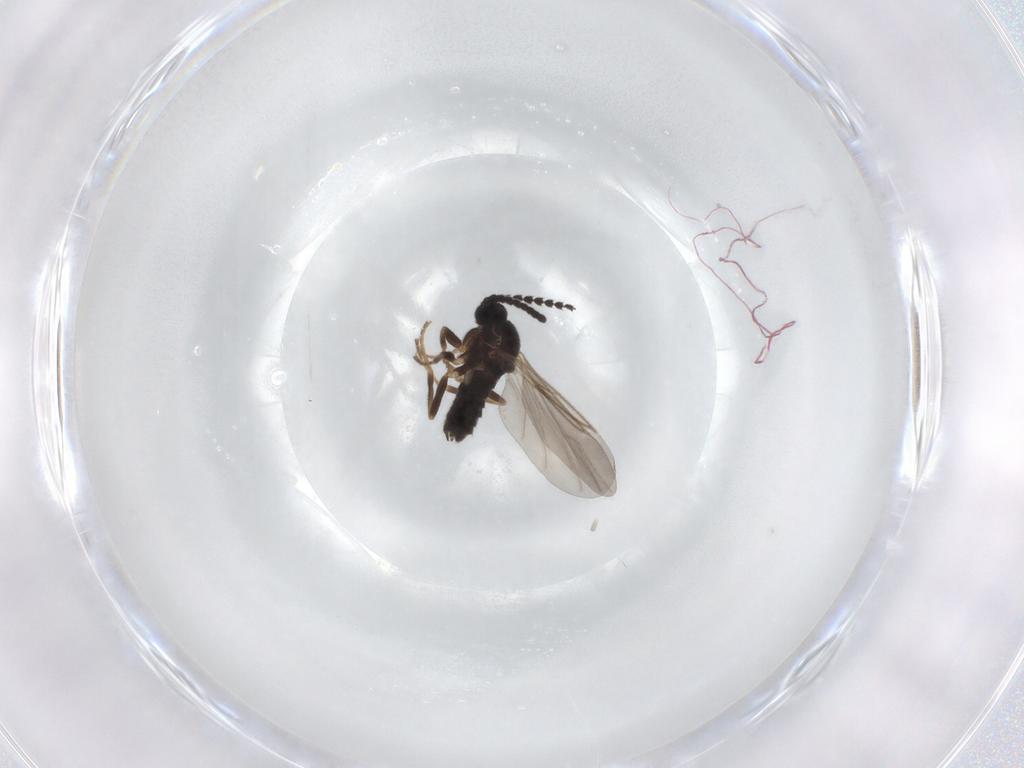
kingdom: Animalia
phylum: Arthropoda
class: Insecta
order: Diptera
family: Scatopsidae
